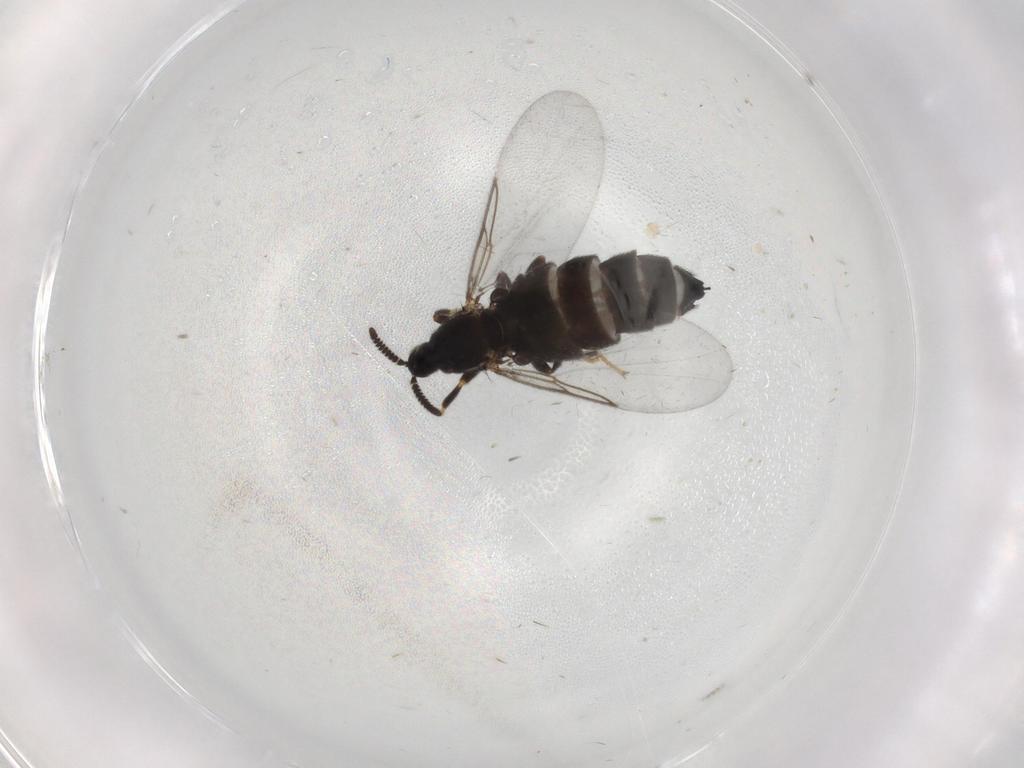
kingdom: Animalia
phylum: Arthropoda
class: Insecta
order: Diptera
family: Scatopsidae
